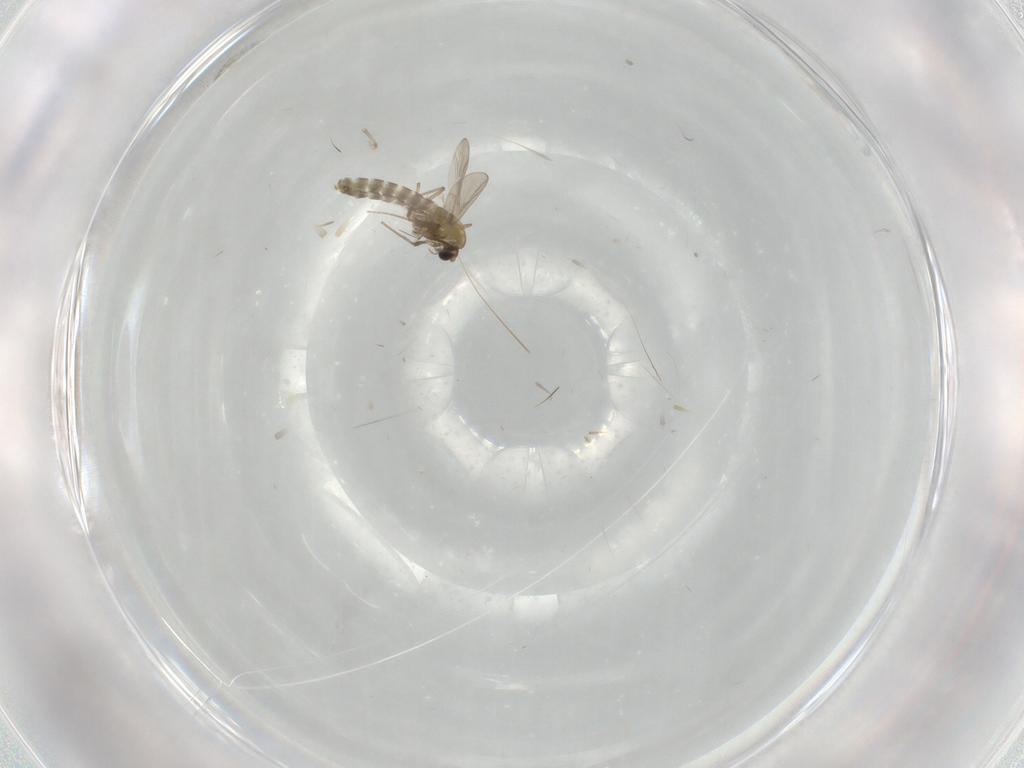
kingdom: Animalia
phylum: Arthropoda
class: Insecta
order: Diptera
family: Chironomidae
